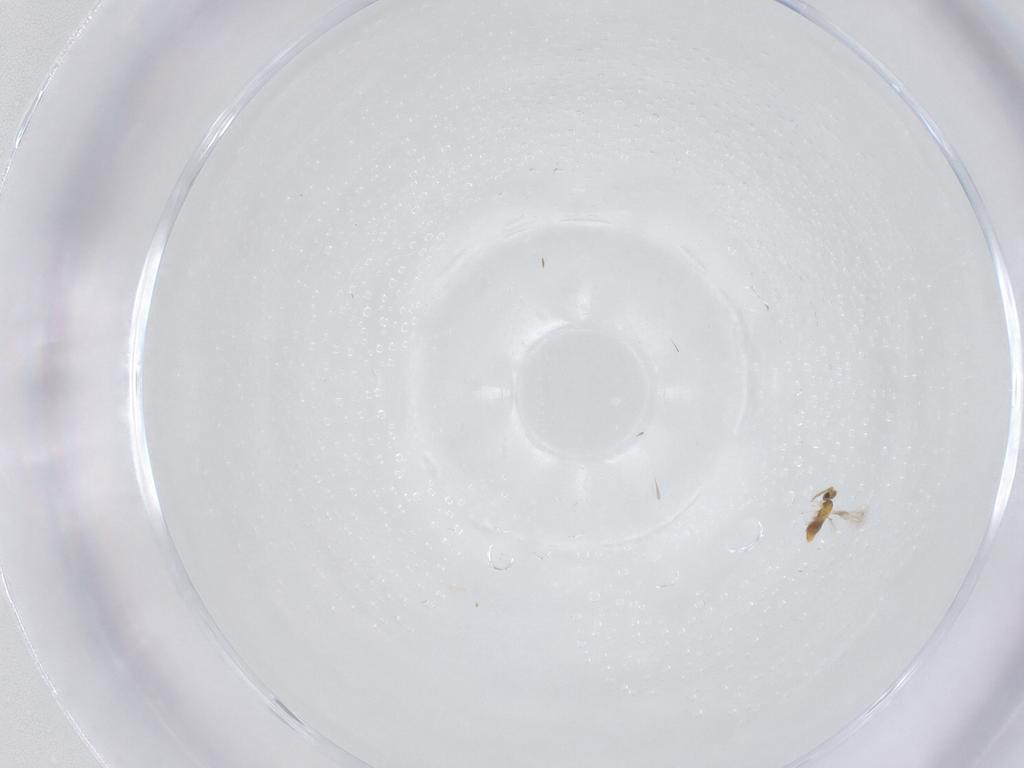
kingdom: Animalia
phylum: Arthropoda
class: Insecta
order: Hymenoptera
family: Aphelinidae
